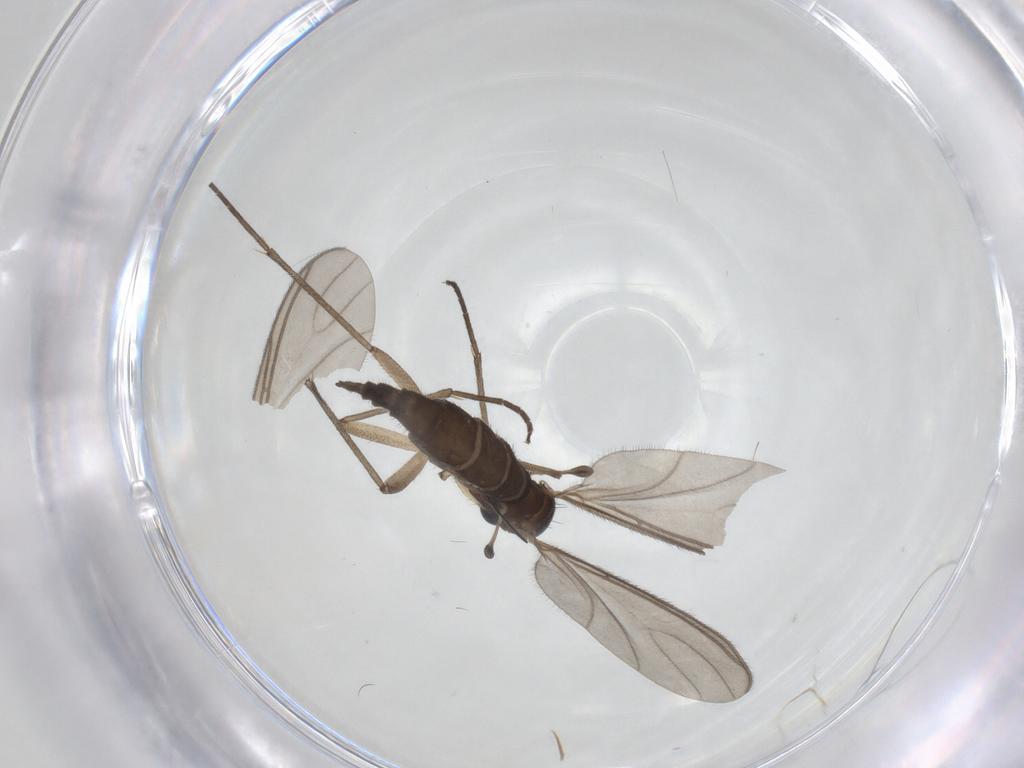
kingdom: Animalia
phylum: Arthropoda
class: Insecta
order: Diptera
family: Sciaridae
